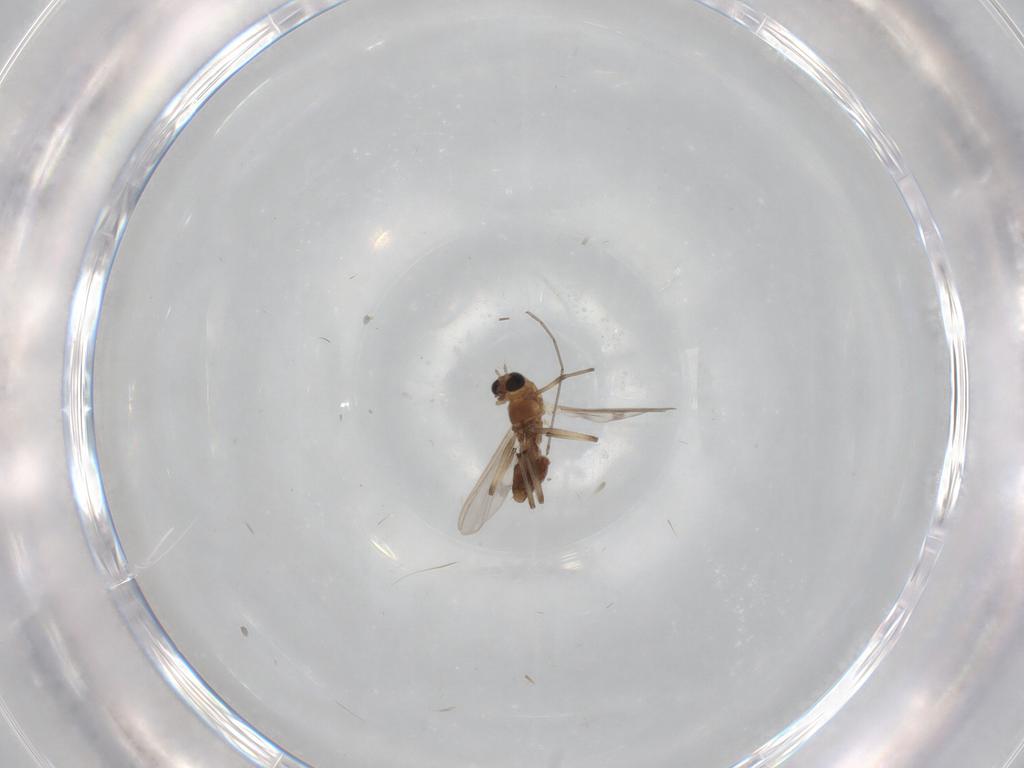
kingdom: Animalia
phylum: Arthropoda
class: Insecta
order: Diptera
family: Chironomidae
